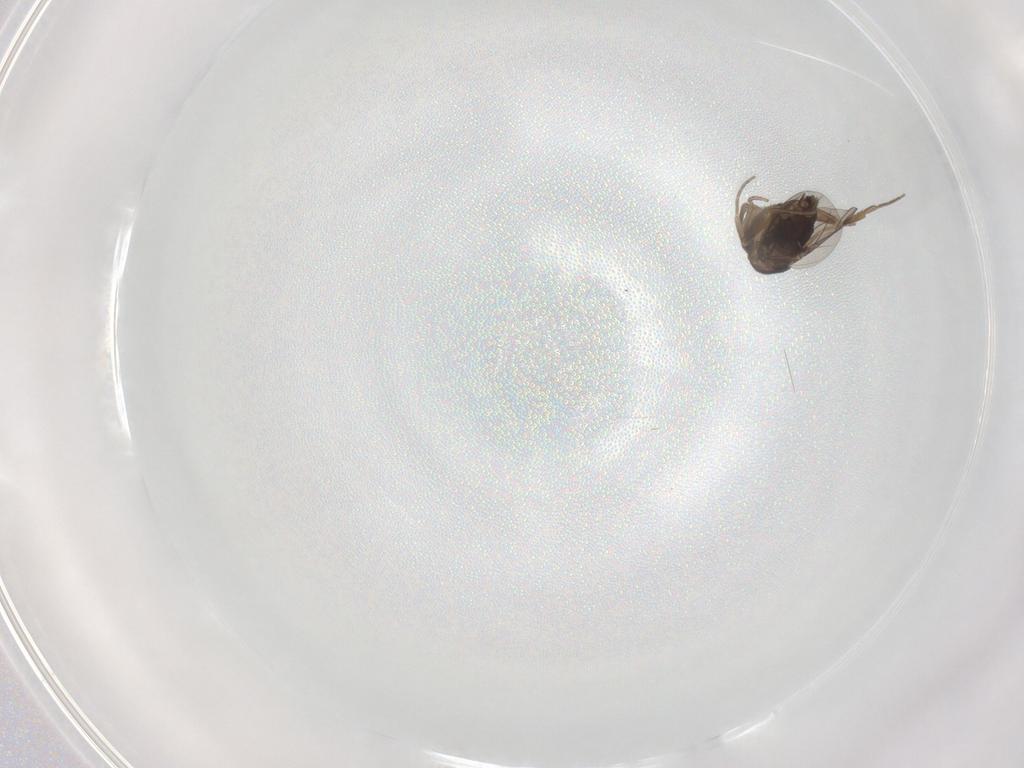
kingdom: Animalia
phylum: Arthropoda
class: Insecta
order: Diptera
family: Phoridae
